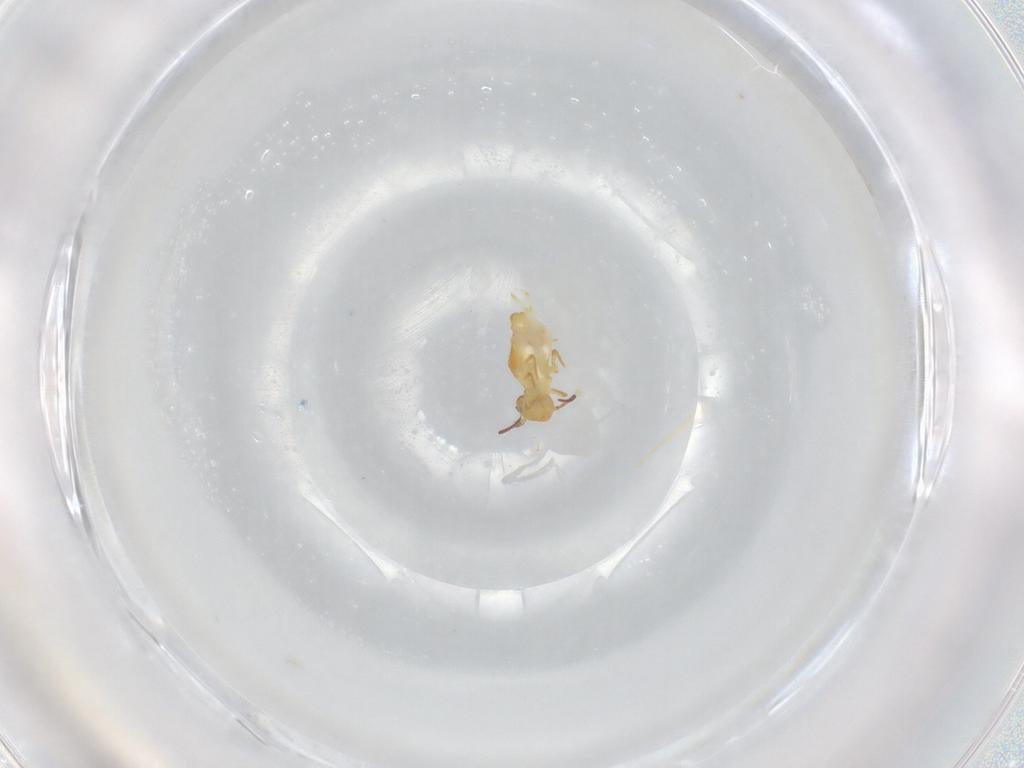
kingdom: Animalia
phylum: Arthropoda
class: Collembola
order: Symphypleona
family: Bourletiellidae
